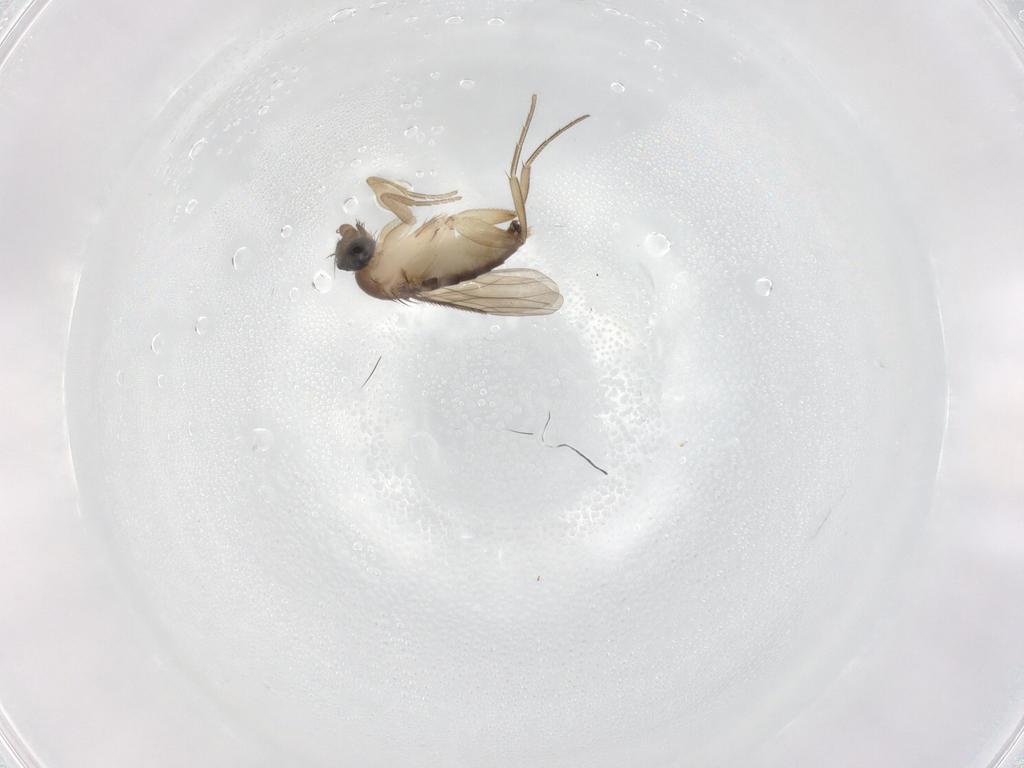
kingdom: Animalia
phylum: Arthropoda
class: Insecta
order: Diptera
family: Phoridae
